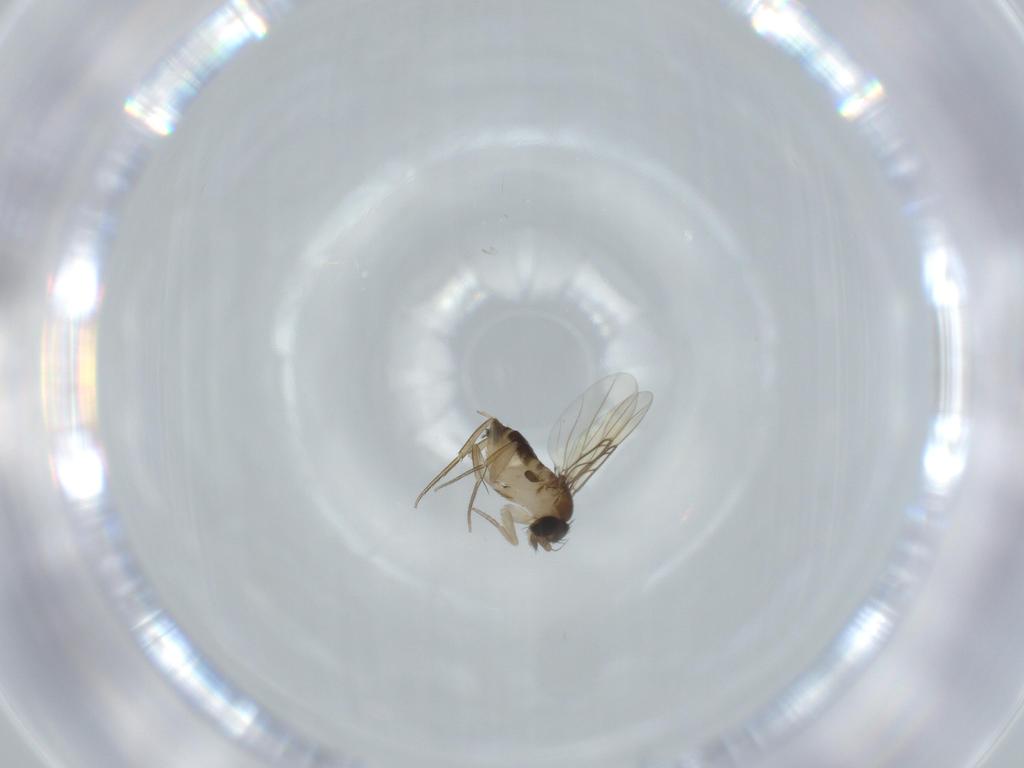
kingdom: Animalia
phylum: Arthropoda
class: Insecta
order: Diptera
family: Phoridae
